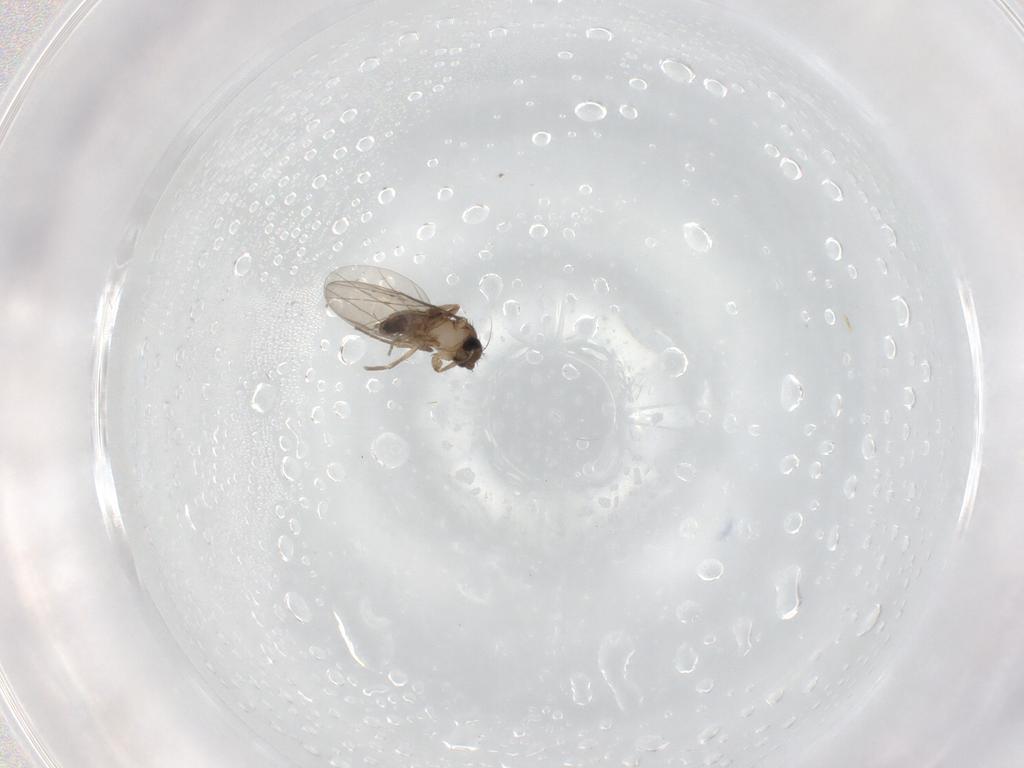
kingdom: Animalia
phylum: Arthropoda
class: Insecta
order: Diptera
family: Phoridae
